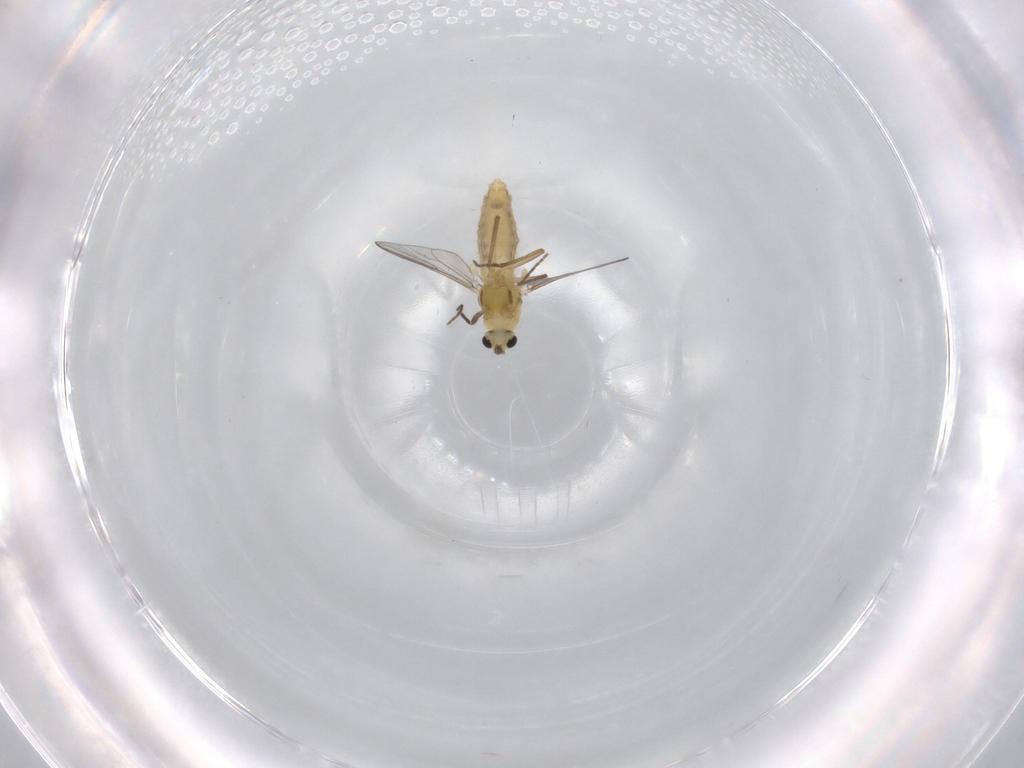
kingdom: Animalia
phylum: Arthropoda
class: Insecta
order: Diptera
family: Chironomidae
